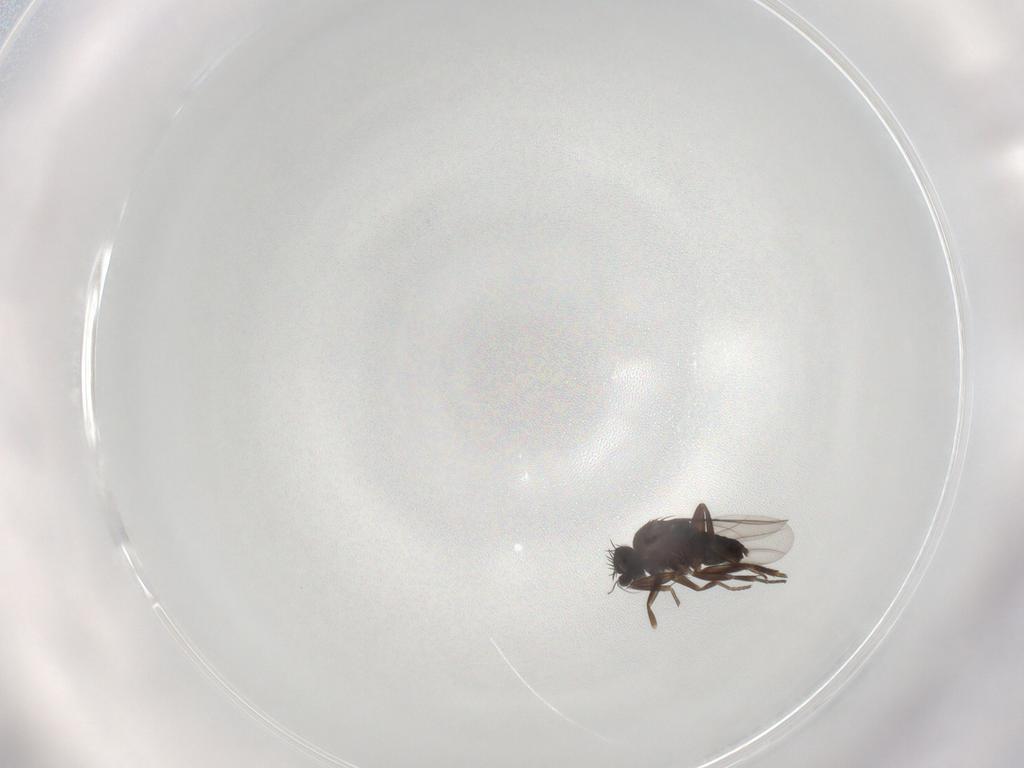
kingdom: Animalia
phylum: Arthropoda
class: Insecta
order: Diptera
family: Phoridae
